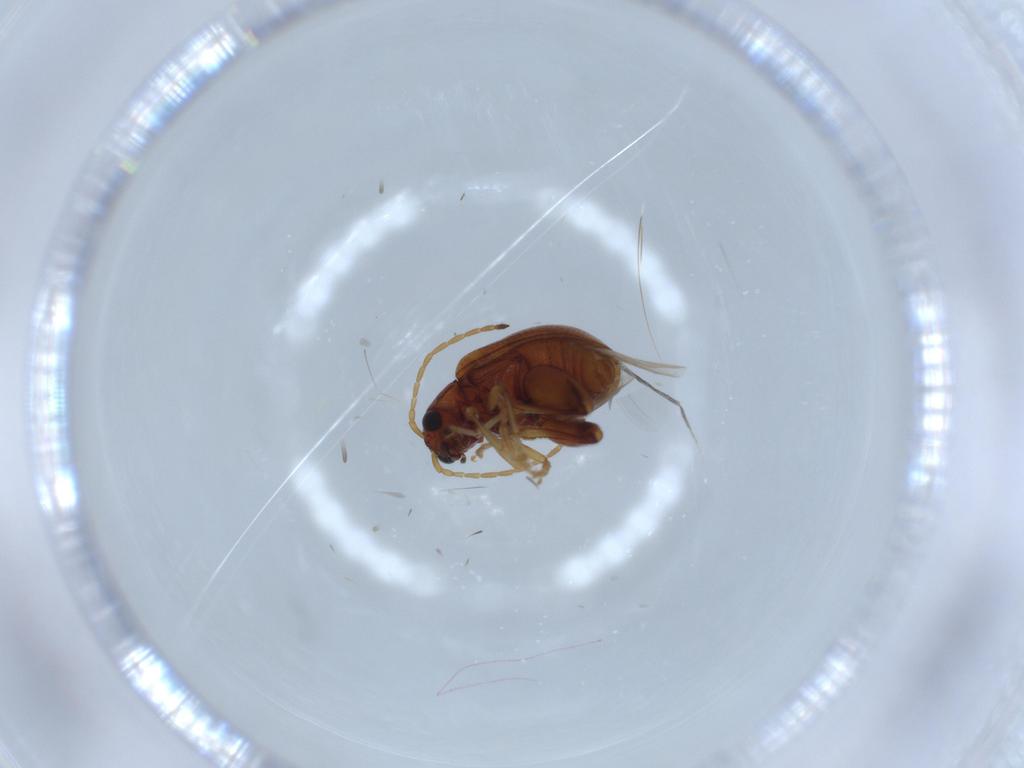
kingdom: Animalia
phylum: Arthropoda
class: Insecta
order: Coleoptera
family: Chrysomelidae
